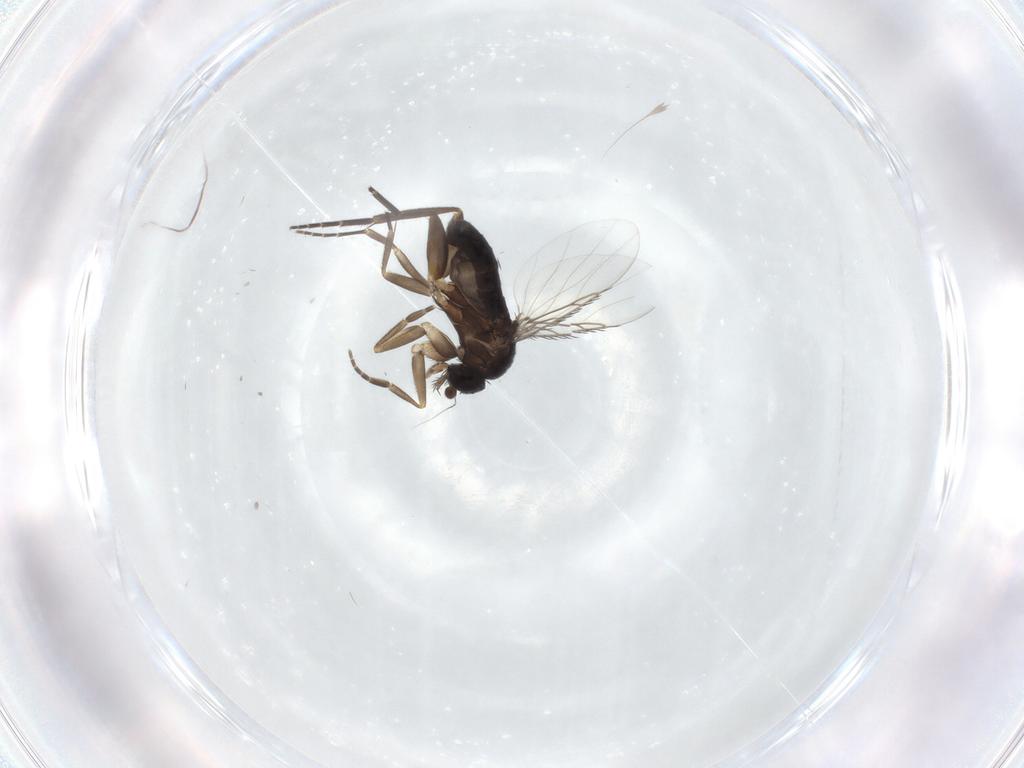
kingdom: Animalia
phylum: Arthropoda
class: Insecta
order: Diptera
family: Phoridae
